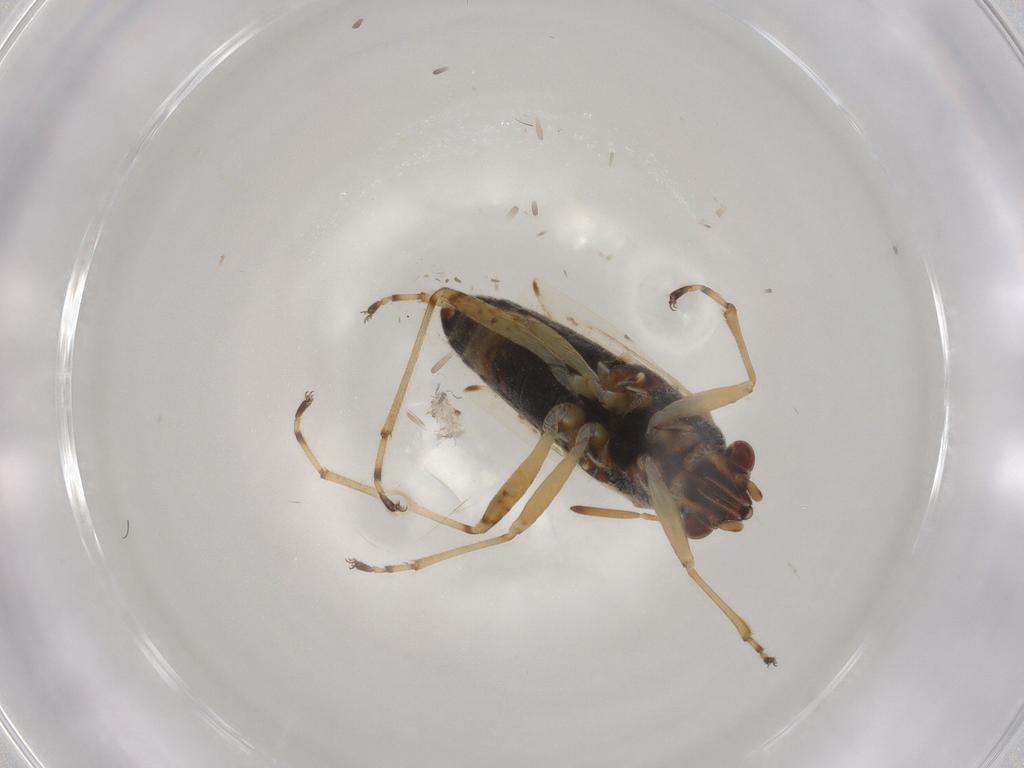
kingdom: Animalia
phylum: Arthropoda
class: Insecta
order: Hemiptera
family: Lygaeidae
